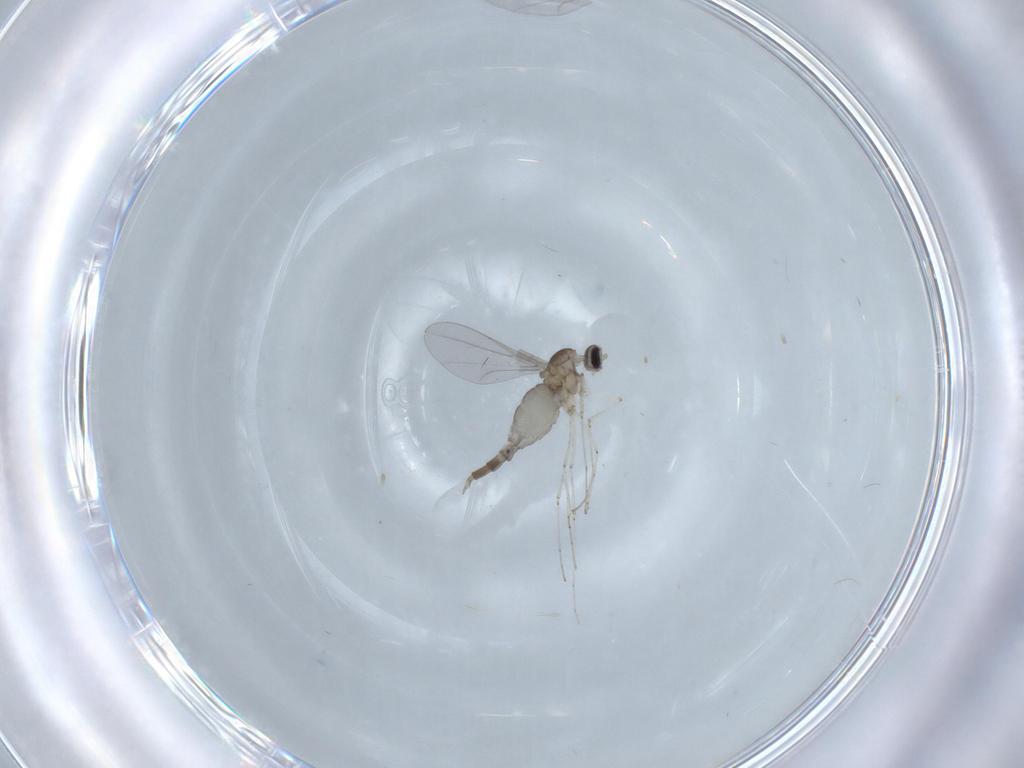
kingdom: Animalia
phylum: Arthropoda
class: Insecta
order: Diptera
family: Cecidomyiidae
